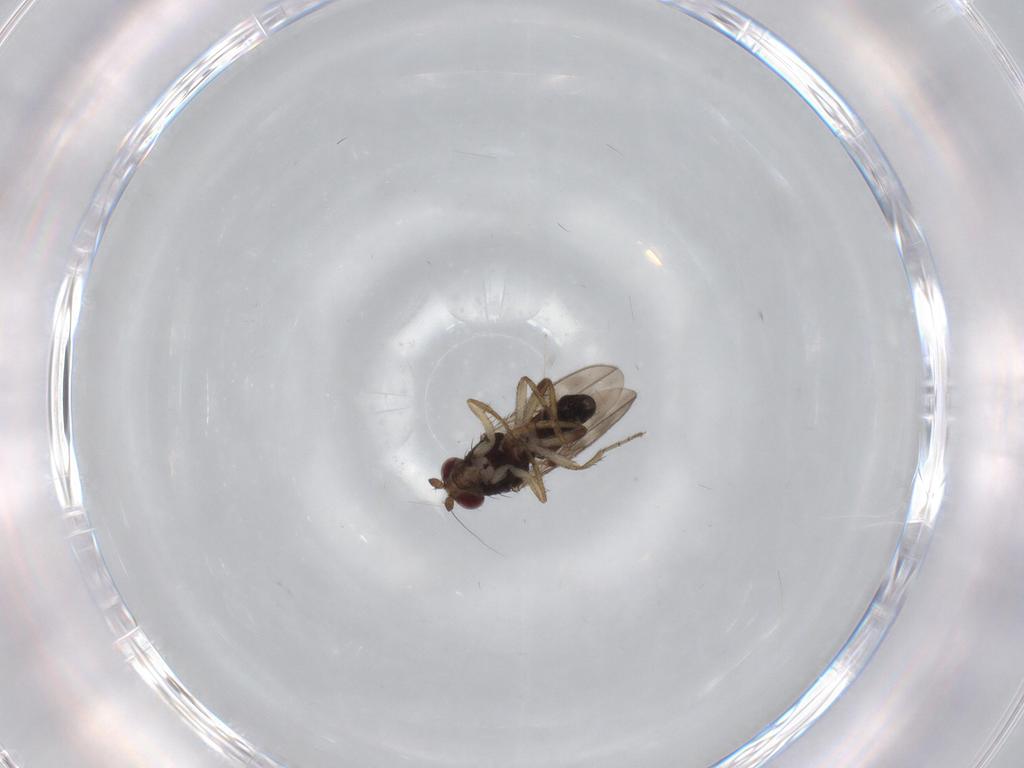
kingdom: Animalia
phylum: Arthropoda
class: Insecta
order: Diptera
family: Sphaeroceridae
